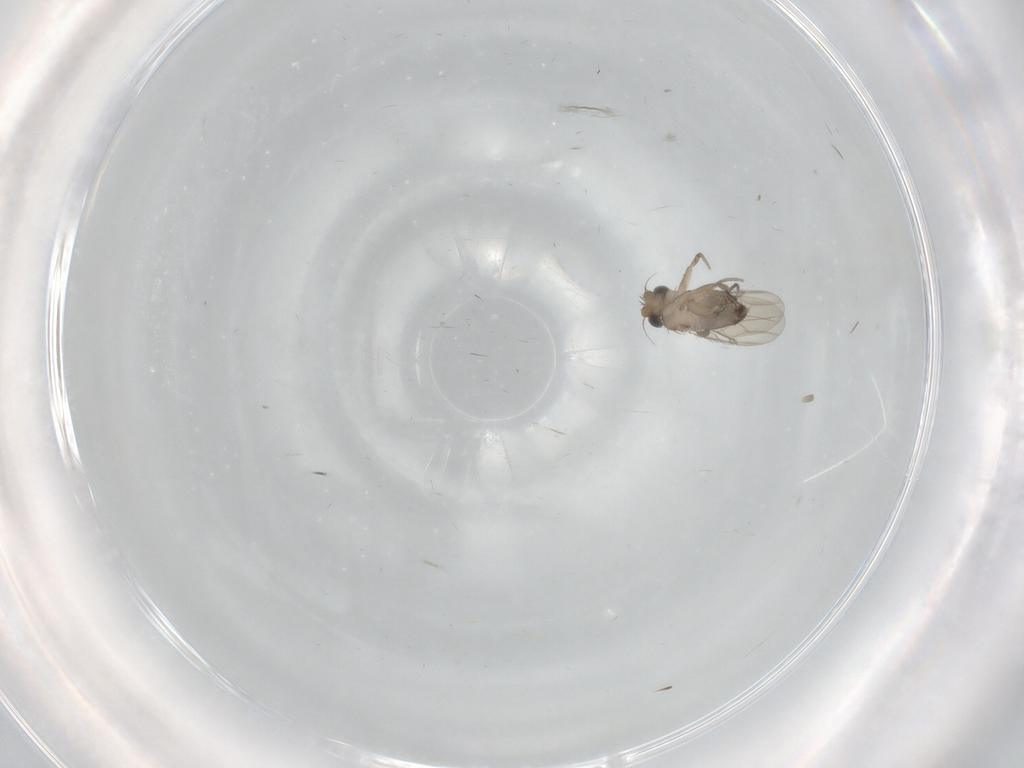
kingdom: Animalia
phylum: Arthropoda
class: Insecta
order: Diptera
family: Phoridae
